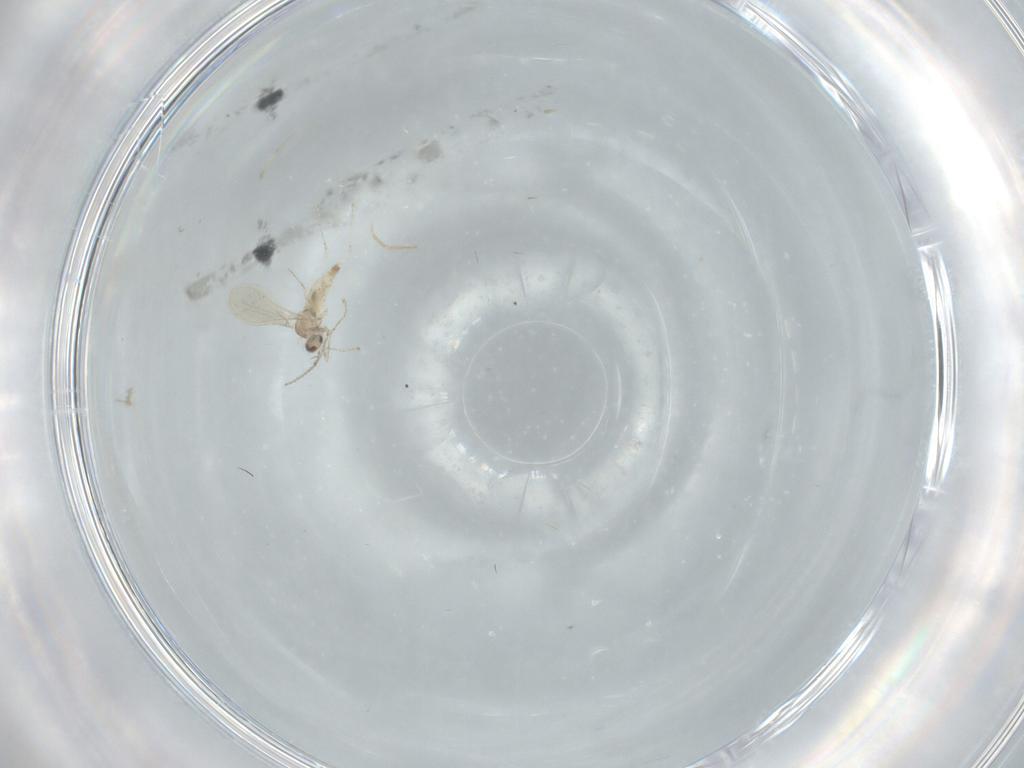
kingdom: Animalia
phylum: Arthropoda
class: Insecta
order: Diptera
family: Cecidomyiidae
